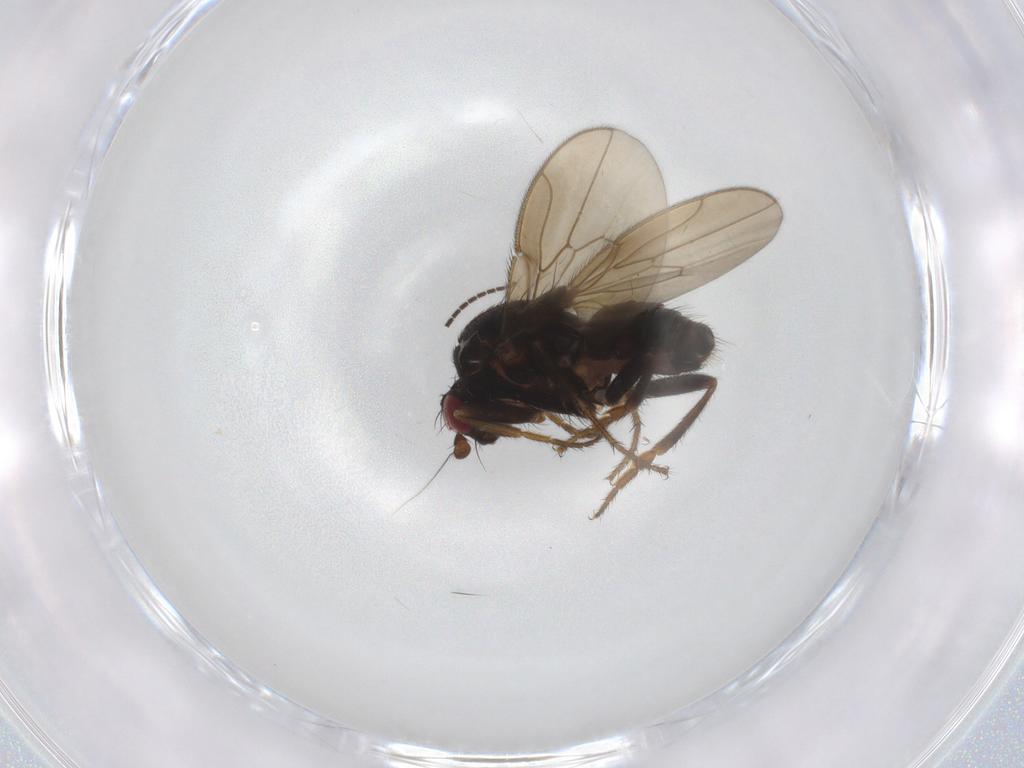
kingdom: Animalia
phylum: Arthropoda
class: Insecta
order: Diptera
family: Sphaeroceridae
